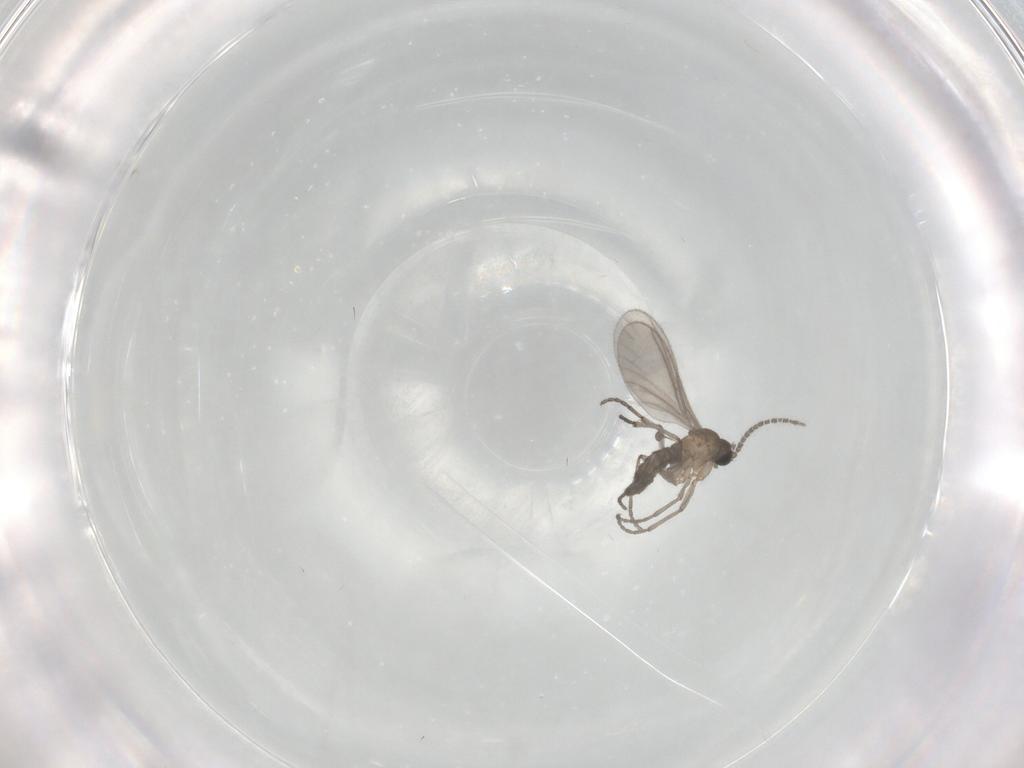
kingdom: Animalia
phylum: Arthropoda
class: Insecta
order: Diptera
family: Sciaridae
